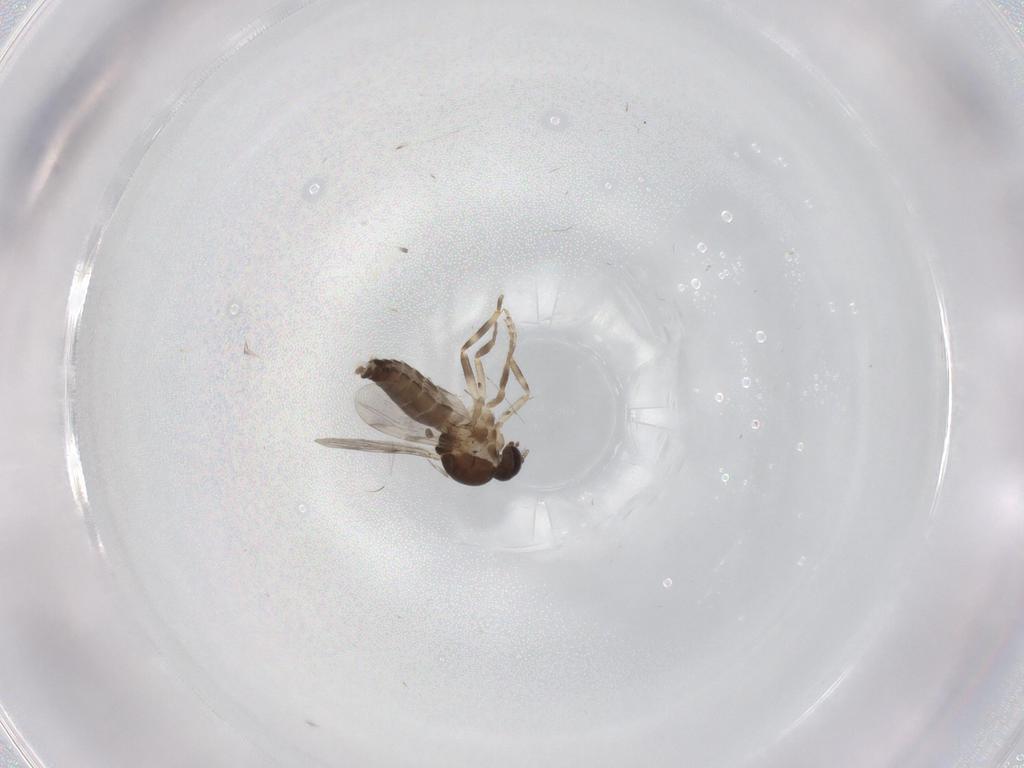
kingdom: Animalia
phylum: Arthropoda
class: Insecta
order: Diptera
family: Ceratopogonidae
